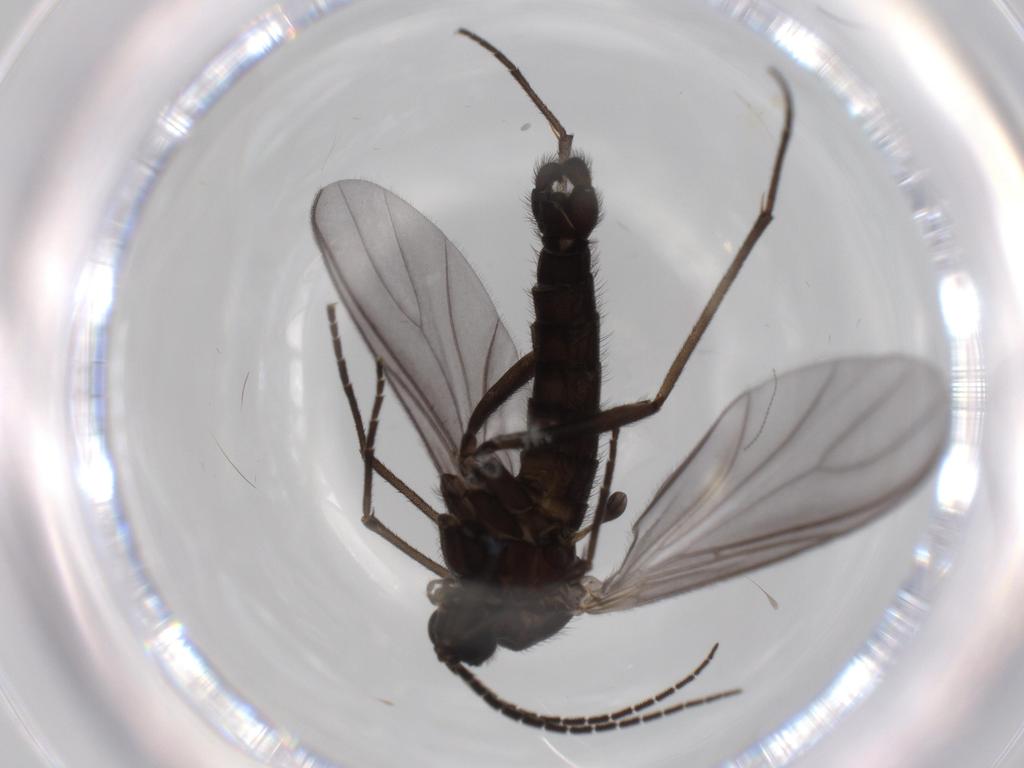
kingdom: Animalia
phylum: Arthropoda
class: Insecta
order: Diptera
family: Cecidomyiidae
